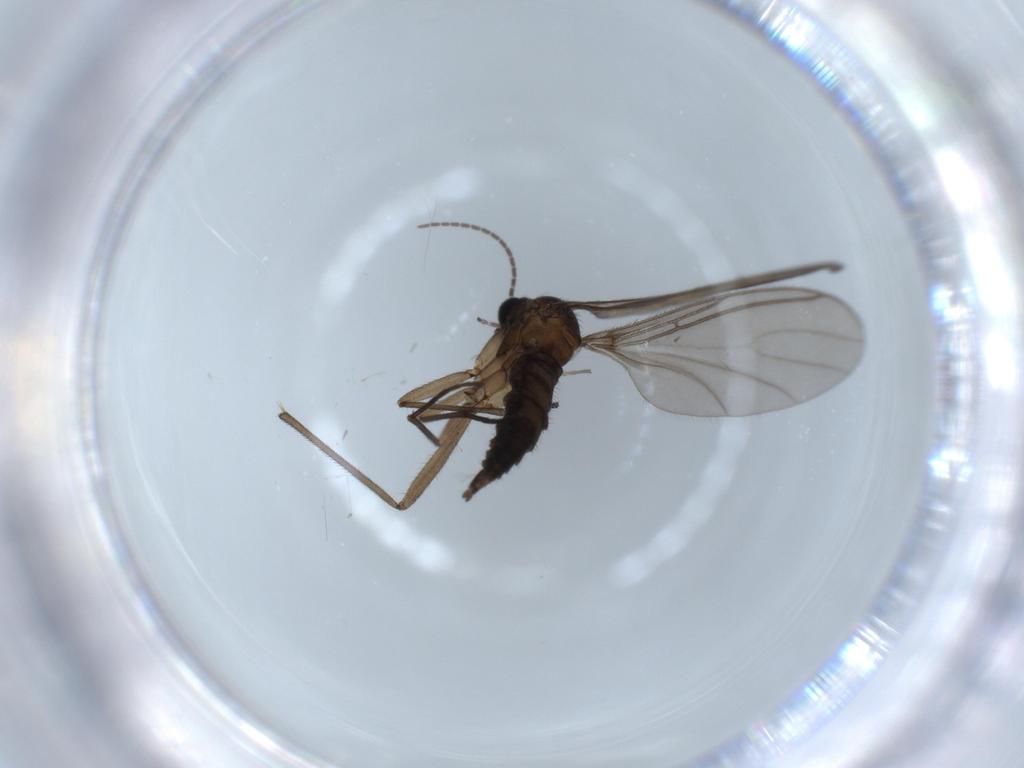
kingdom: Animalia
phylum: Arthropoda
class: Insecta
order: Diptera
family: Sciaridae
